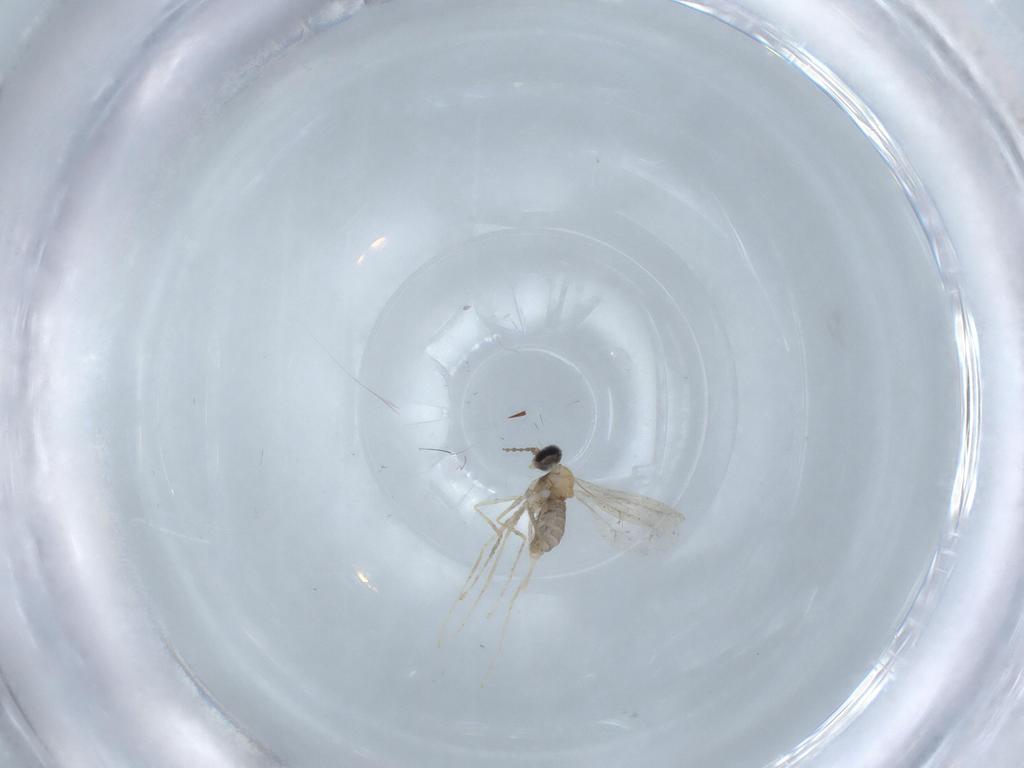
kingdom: Animalia
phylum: Arthropoda
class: Insecta
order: Diptera
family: Cecidomyiidae
